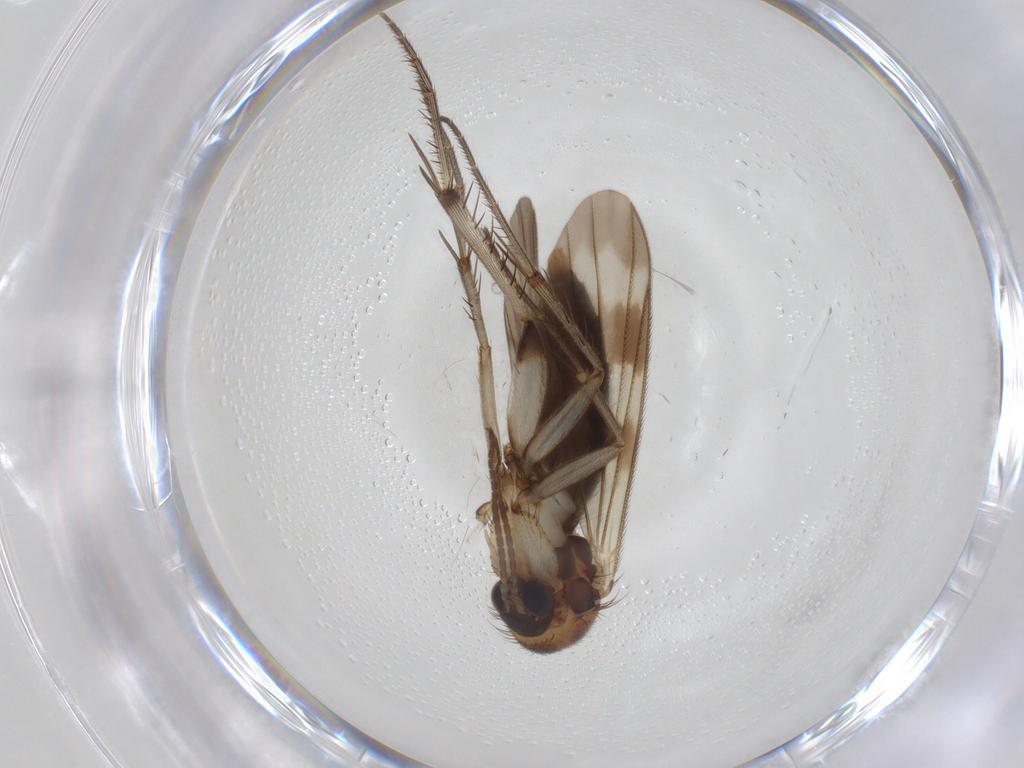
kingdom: Animalia
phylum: Arthropoda
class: Insecta
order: Diptera
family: Mycetophilidae
